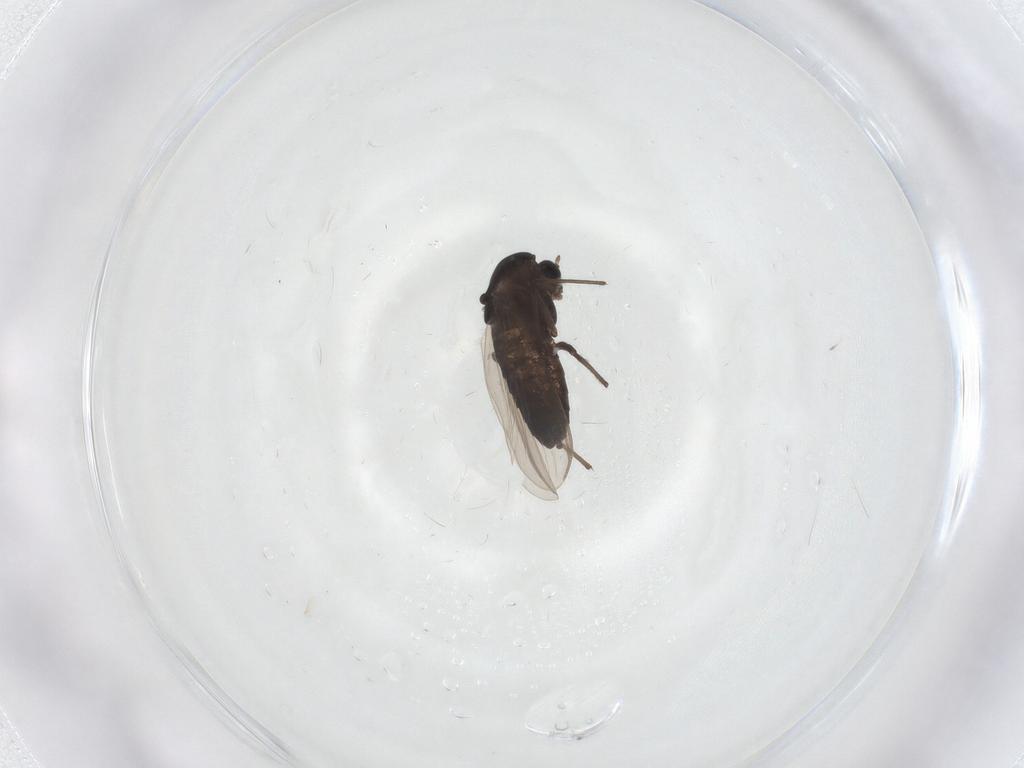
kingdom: Animalia
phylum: Arthropoda
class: Insecta
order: Diptera
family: Chironomidae
